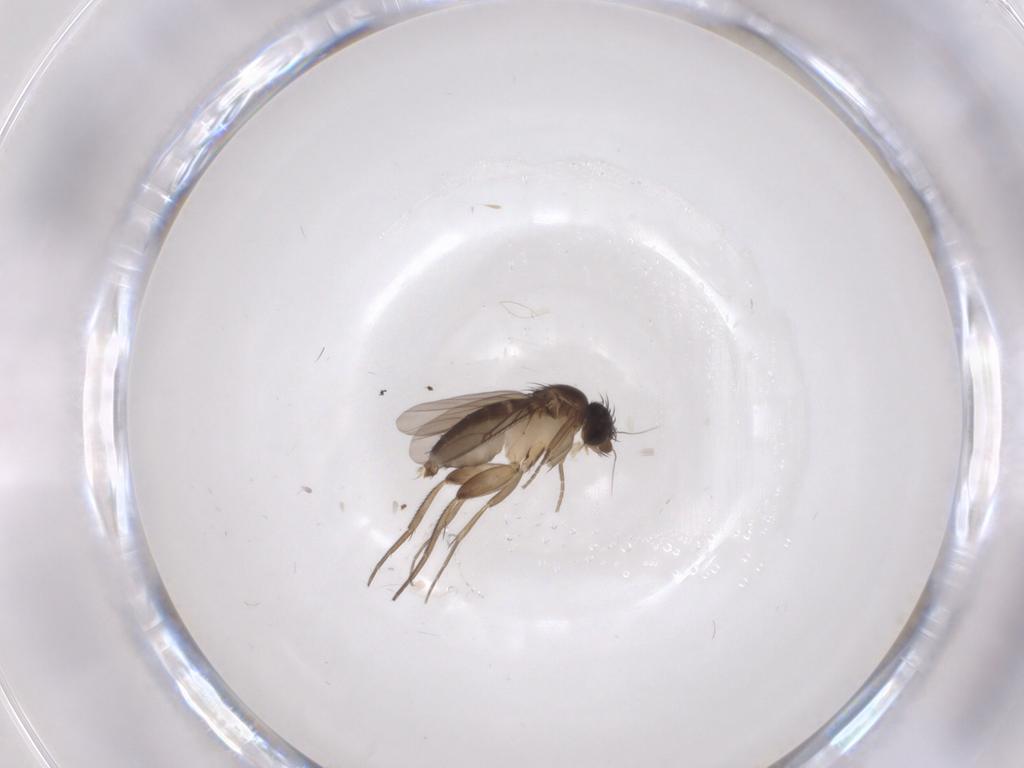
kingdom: Animalia
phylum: Arthropoda
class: Insecta
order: Diptera
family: Phoridae
